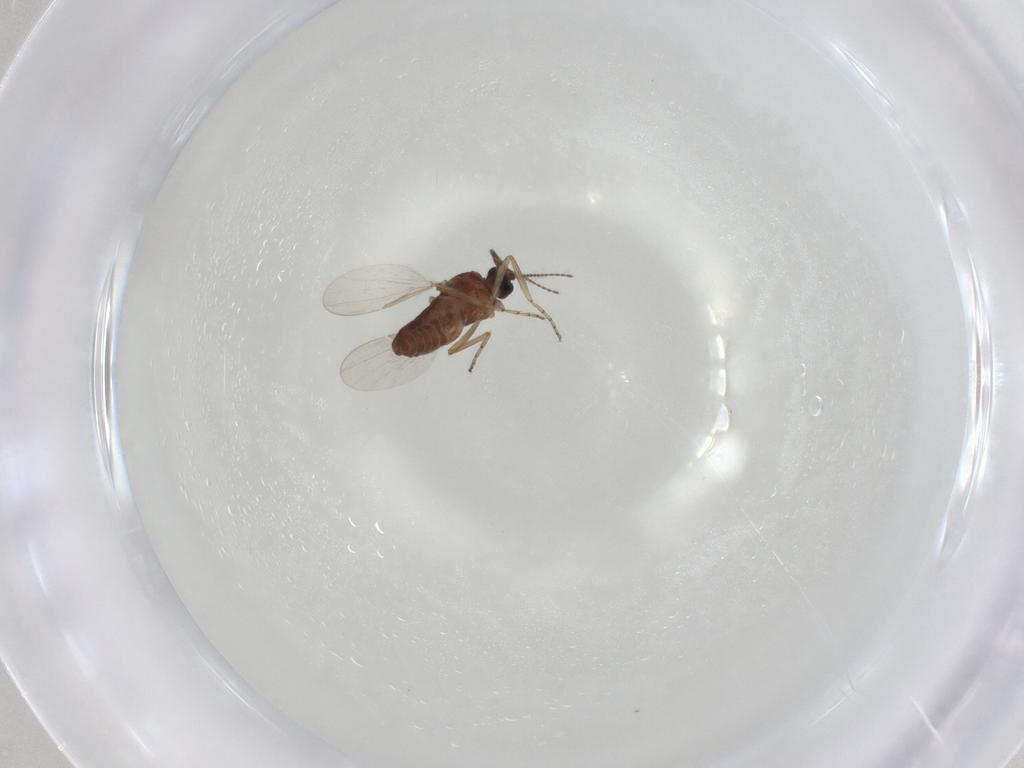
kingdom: Animalia
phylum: Arthropoda
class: Insecta
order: Diptera
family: Ceratopogonidae
